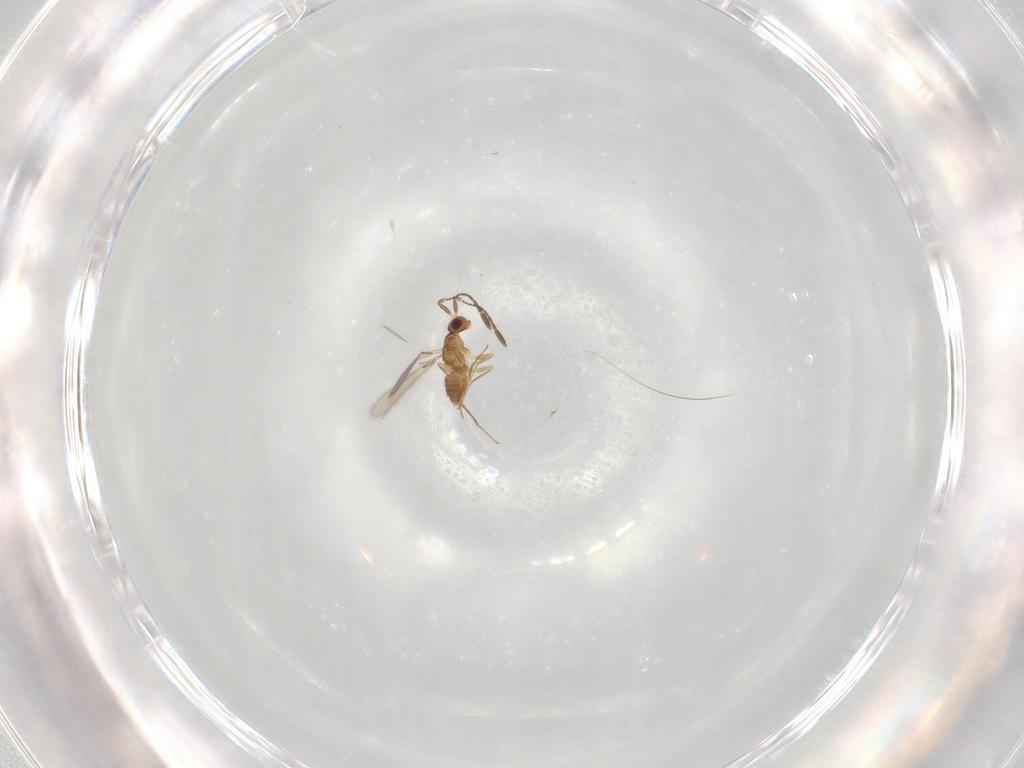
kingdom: Animalia
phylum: Arthropoda
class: Insecta
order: Hymenoptera
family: Mymaridae
